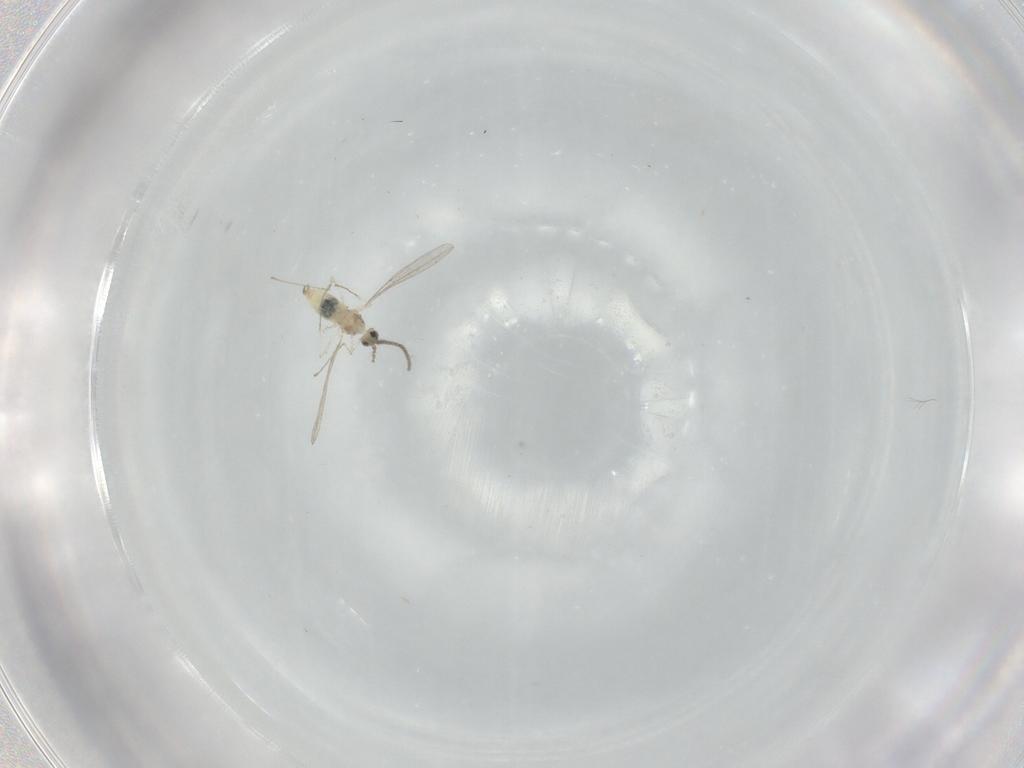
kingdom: Animalia
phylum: Arthropoda
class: Insecta
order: Diptera
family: Cecidomyiidae
